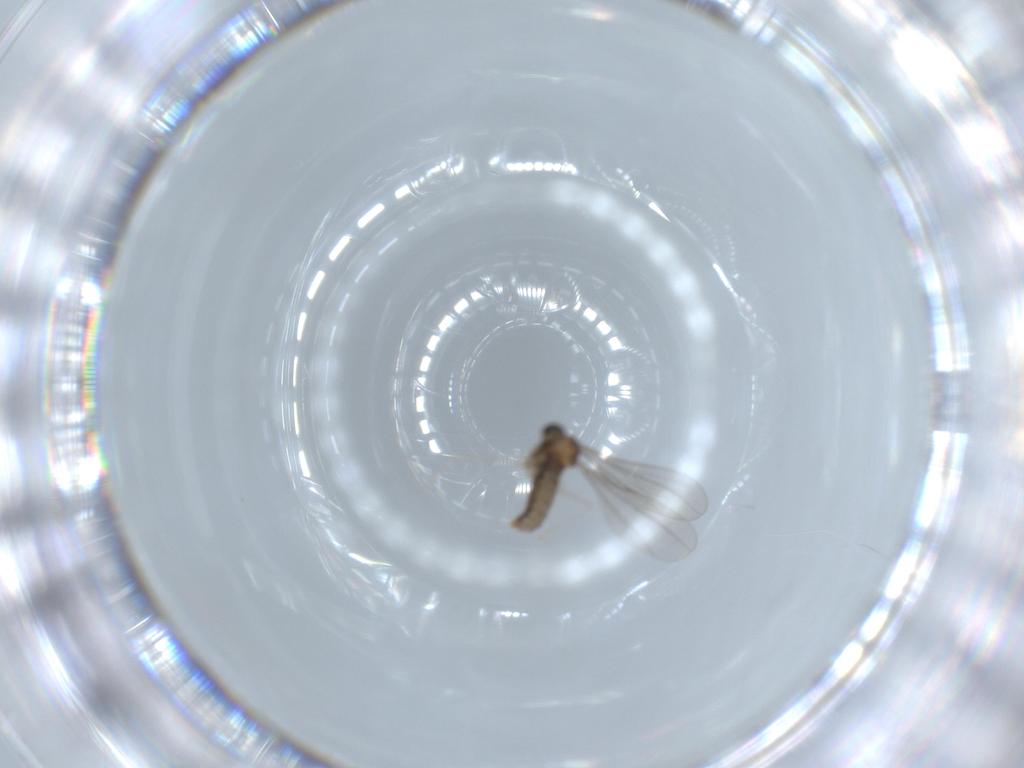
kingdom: Animalia
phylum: Arthropoda
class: Insecta
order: Diptera
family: Cecidomyiidae
